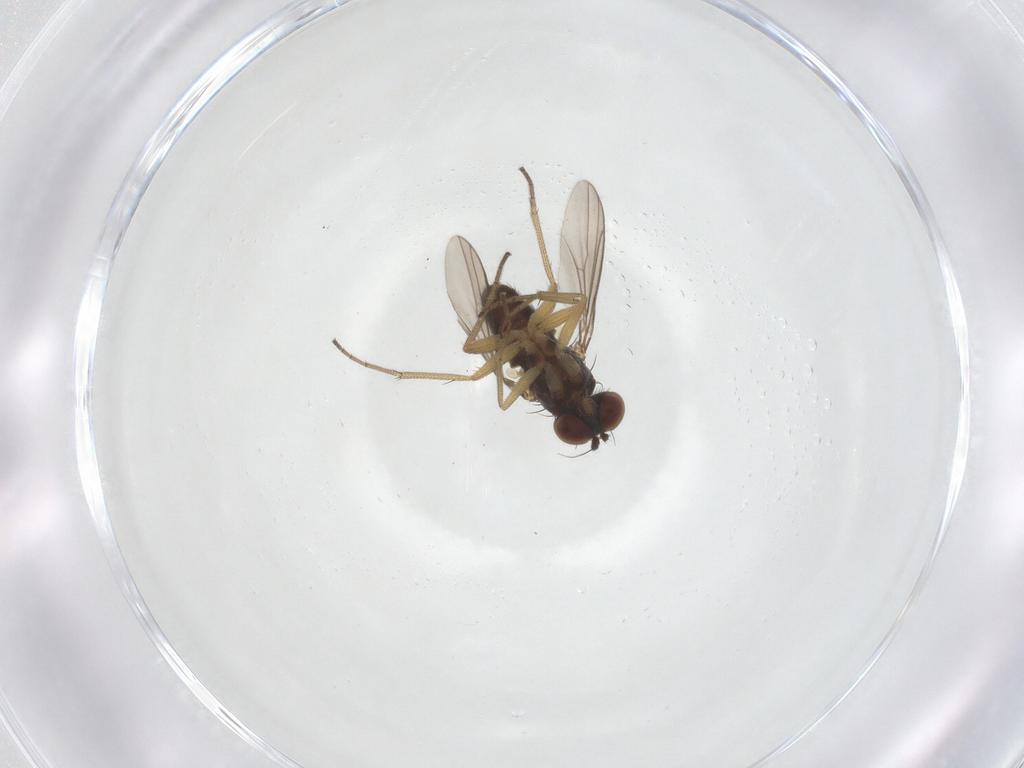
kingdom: Animalia
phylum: Arthropoda
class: Insecta
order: Diptera
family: Dolichopodidae
